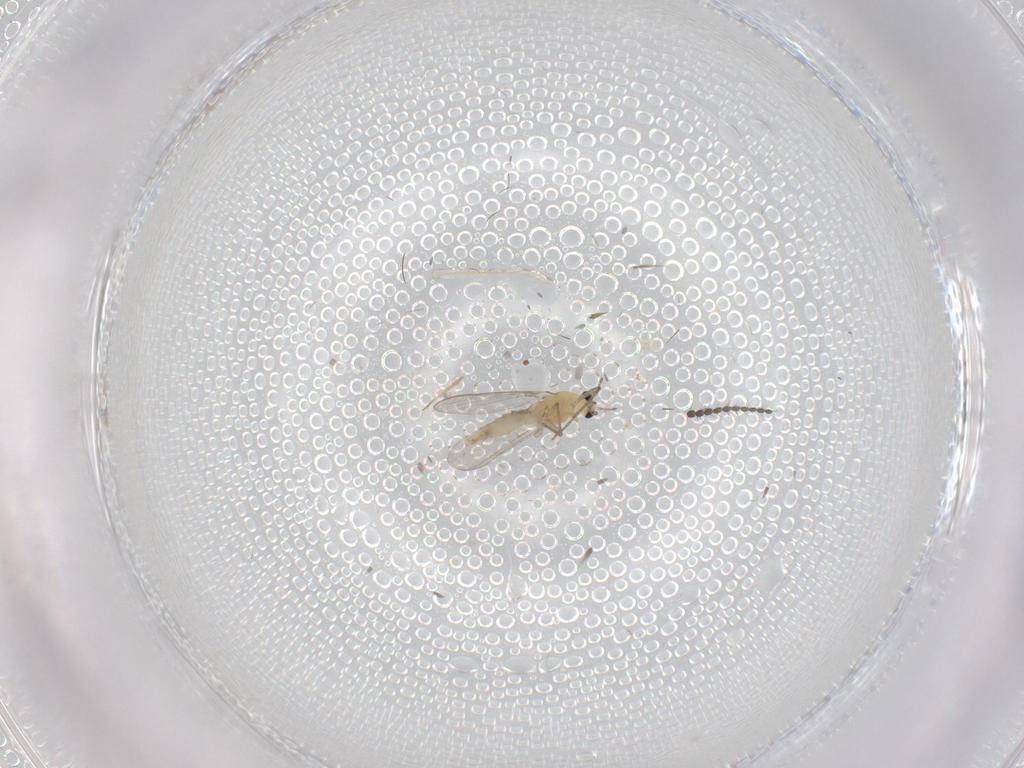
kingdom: Animalia
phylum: Arthropoda
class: Insecta
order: Diptera
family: Limoniidae
